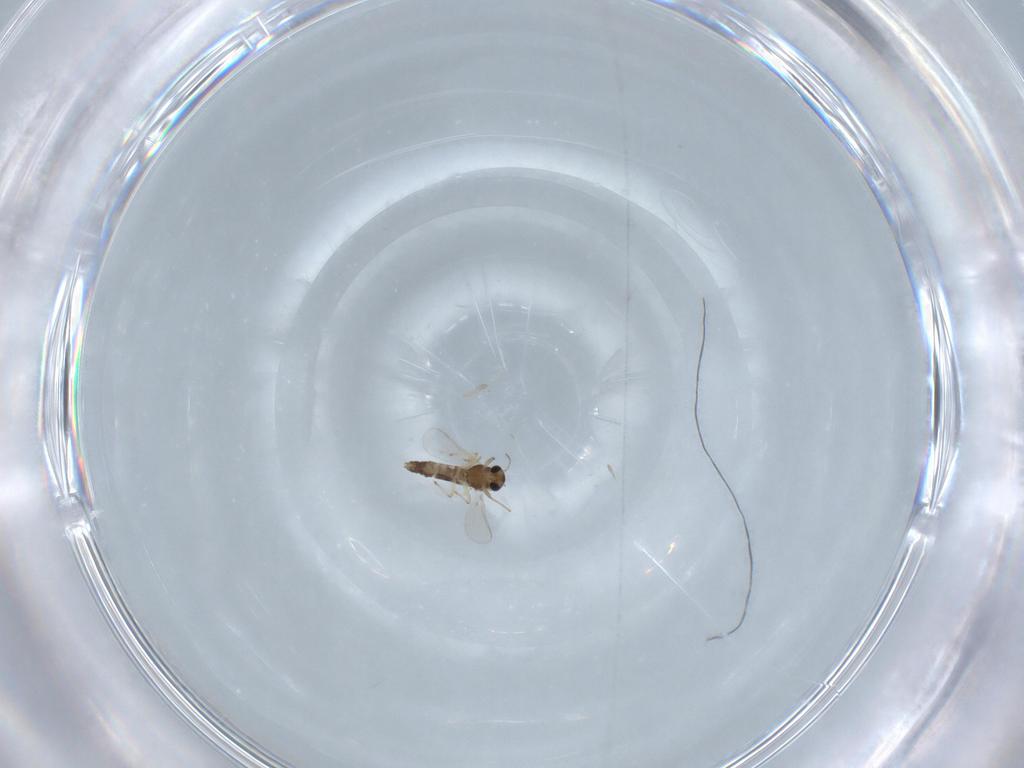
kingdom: Animalia
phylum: Arthropoda
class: Insecta
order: Diptera
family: Chironomidae
